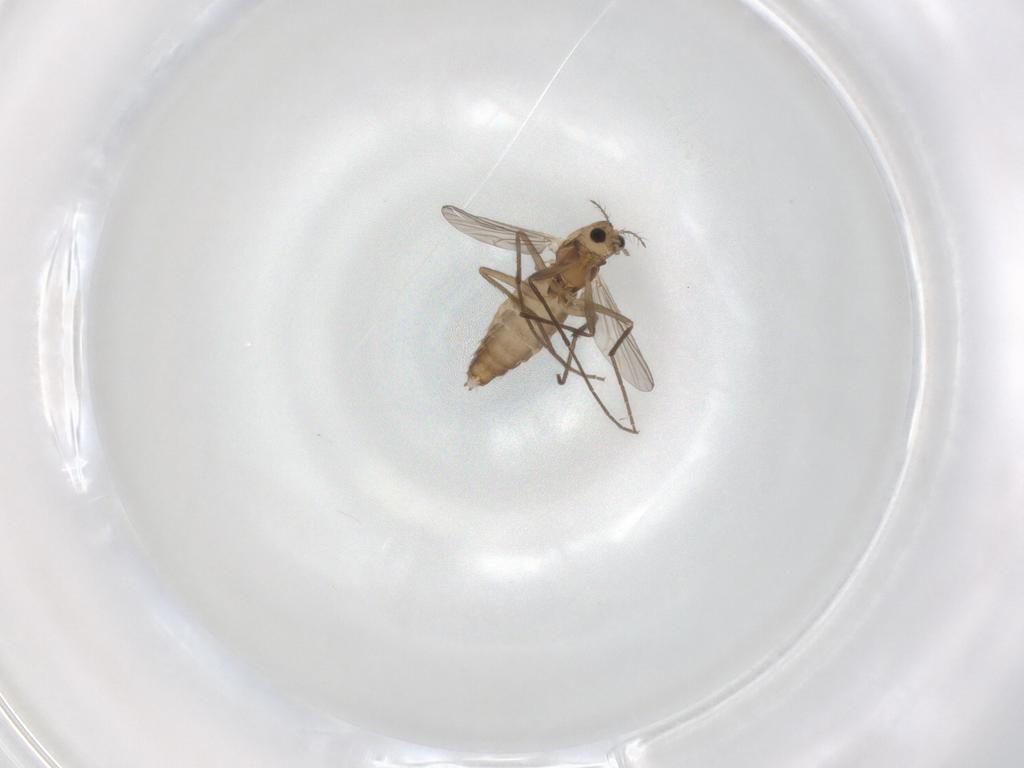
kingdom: Animalia
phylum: Arthropoda
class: Insecta
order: Diptera
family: Chironomidae
